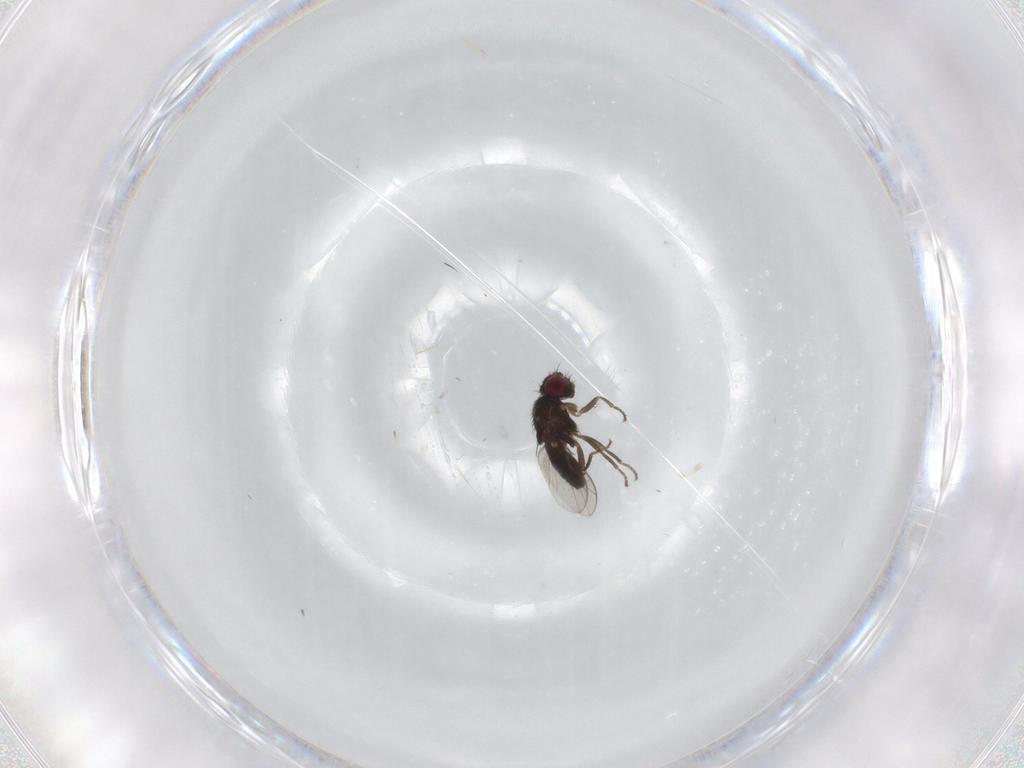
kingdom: Animalia
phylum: Arthropoda
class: Insecta
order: Diptera
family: Carnidae
